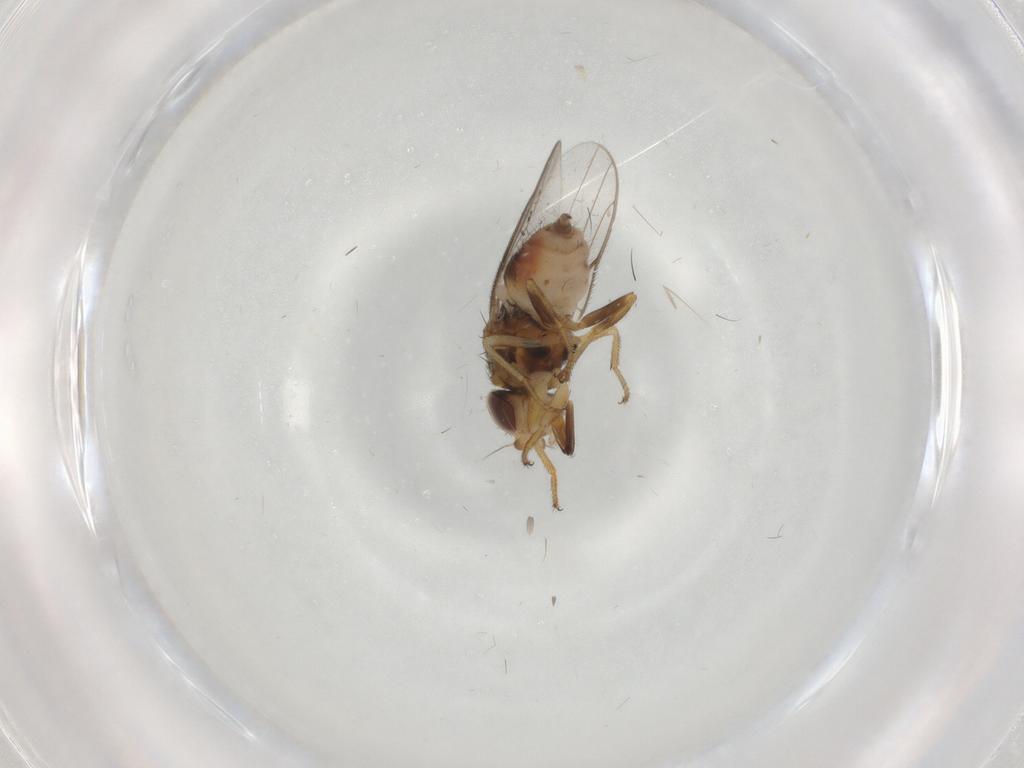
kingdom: Animalia
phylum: Arthropoda
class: Insecta
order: Diptera
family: Chloropidae
